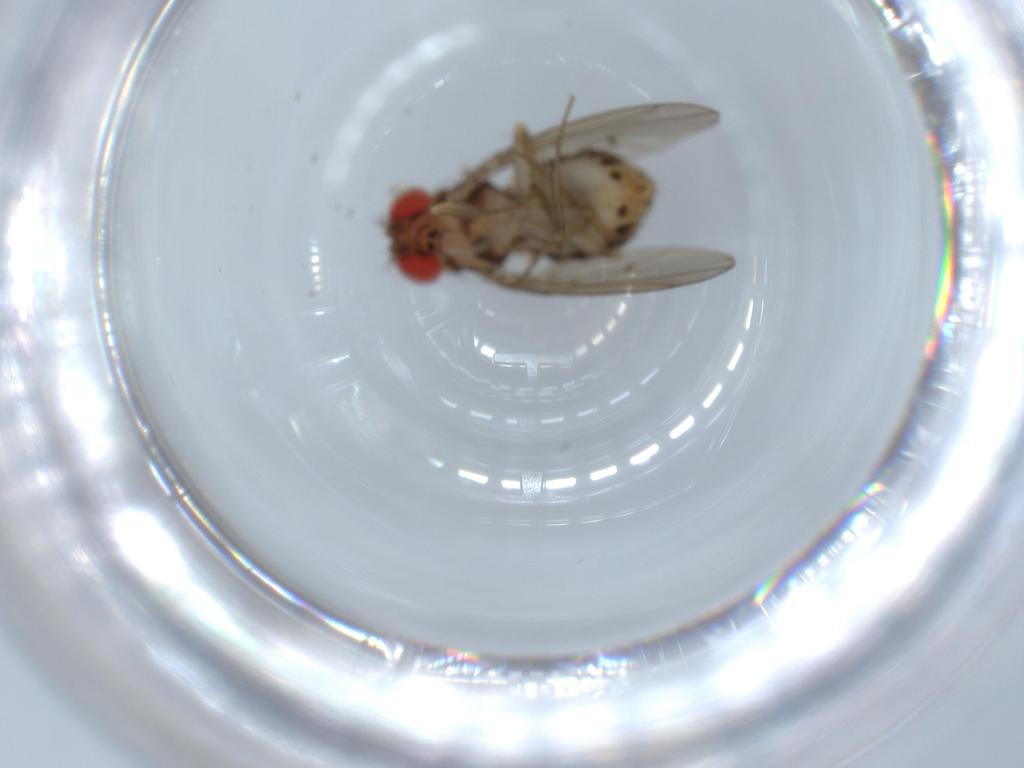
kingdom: Animalia
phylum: Arthropoda
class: Insecta
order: Diptera
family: Drosophilidae
